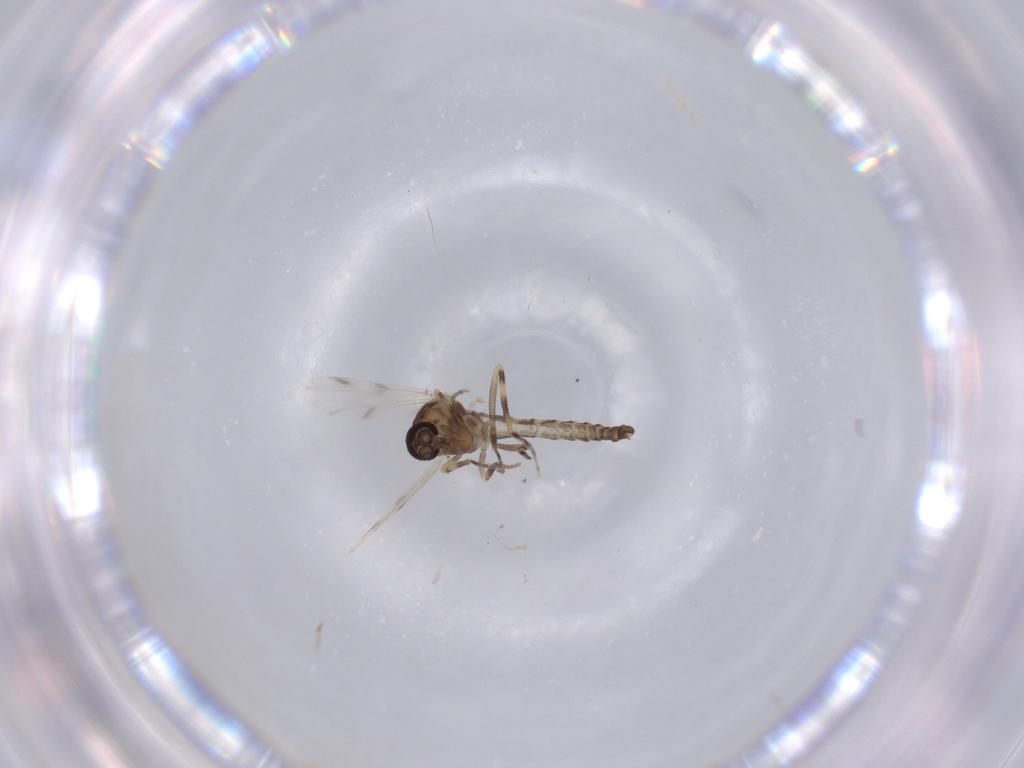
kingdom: Animalia
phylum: Arthropoda
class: Insecta
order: Diptera
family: Ceratopogonidae
